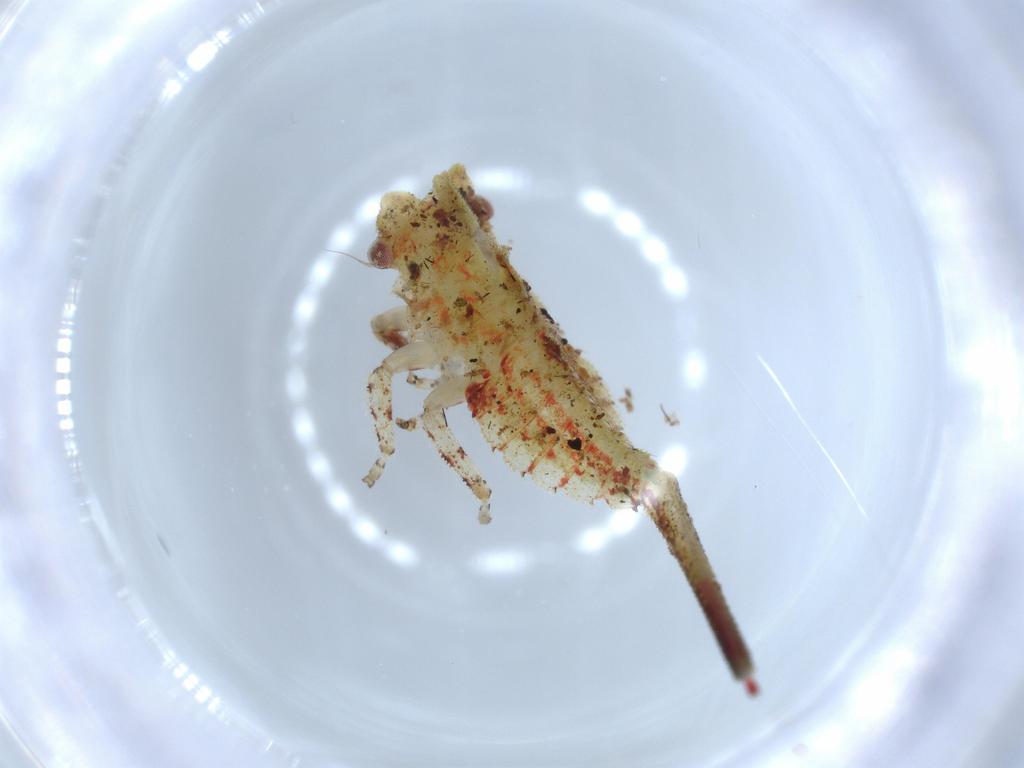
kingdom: Animalia
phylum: Arthropoda
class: Insecta
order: Hemiptera
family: Membracidae
